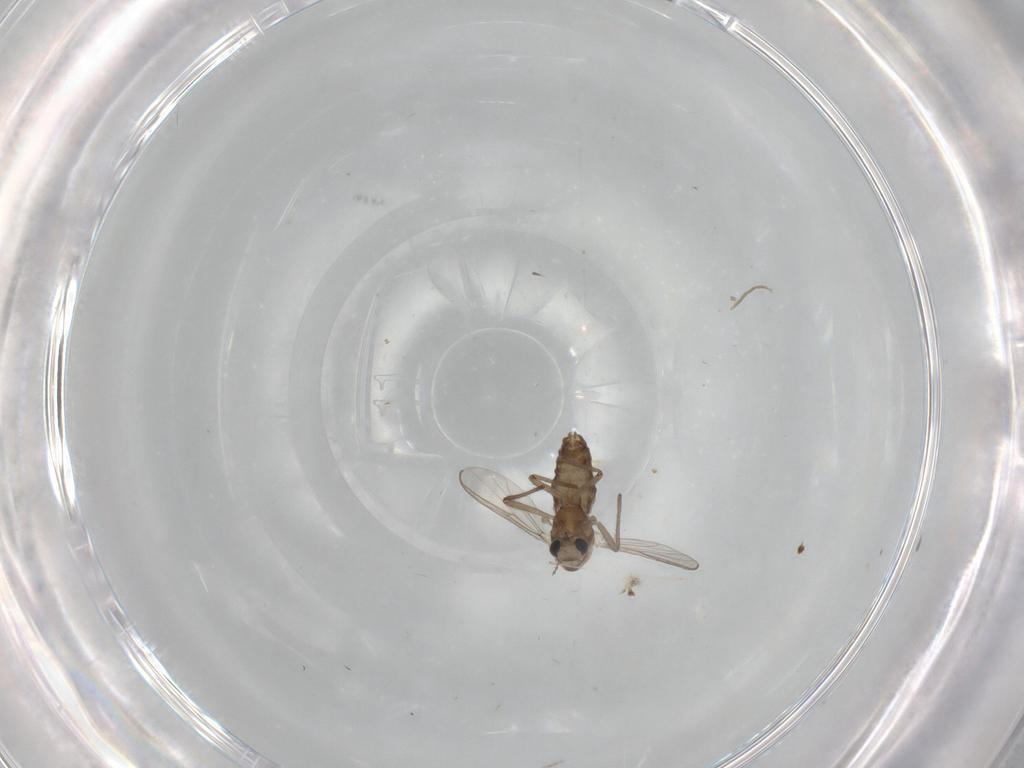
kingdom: Animalia
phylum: Arthropoda
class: Insecta
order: Diptera
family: Chironomidae
